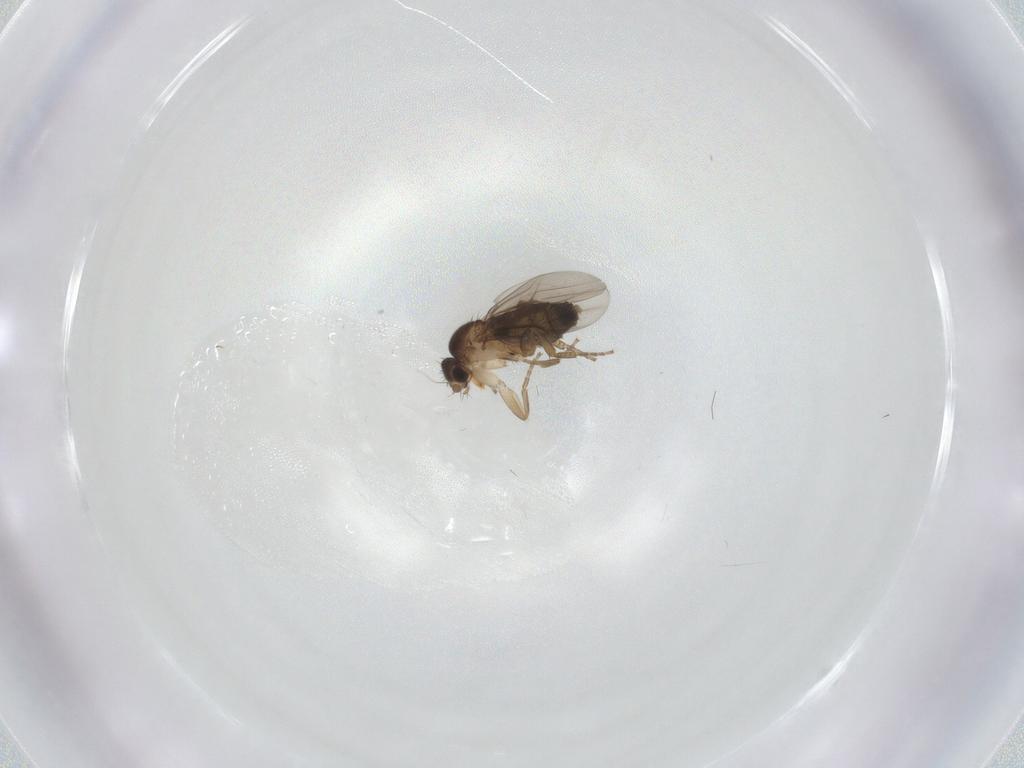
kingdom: Animalia
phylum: Arthropoda
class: Insecta
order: Diptera
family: Phoridae
